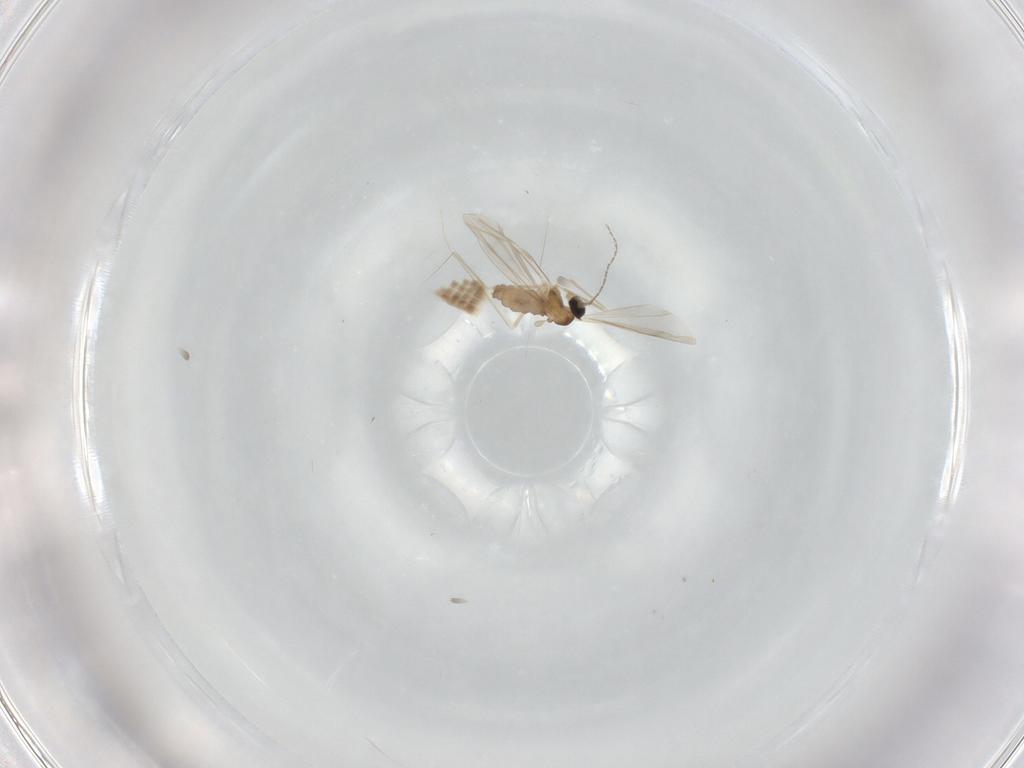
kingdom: Animalia
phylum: Arthropoda
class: Insecta
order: Diptera
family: Cecidomyiidae
